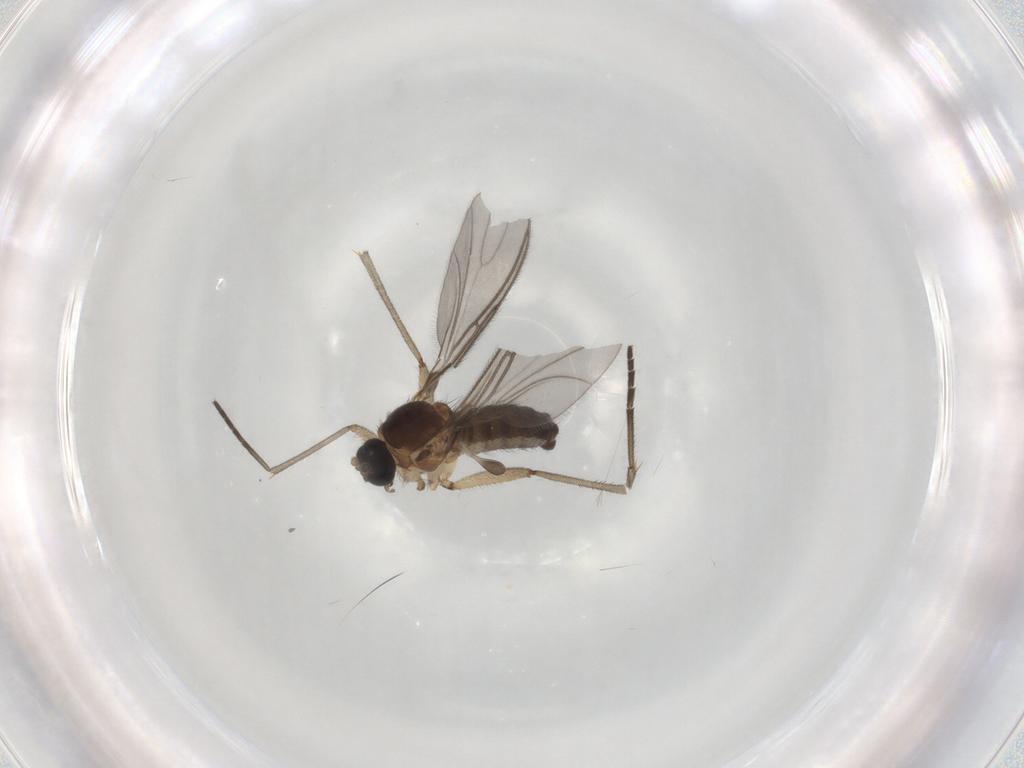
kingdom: Animalia
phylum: Arthropoda
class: Insecta
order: Diptera
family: Sciaridae
